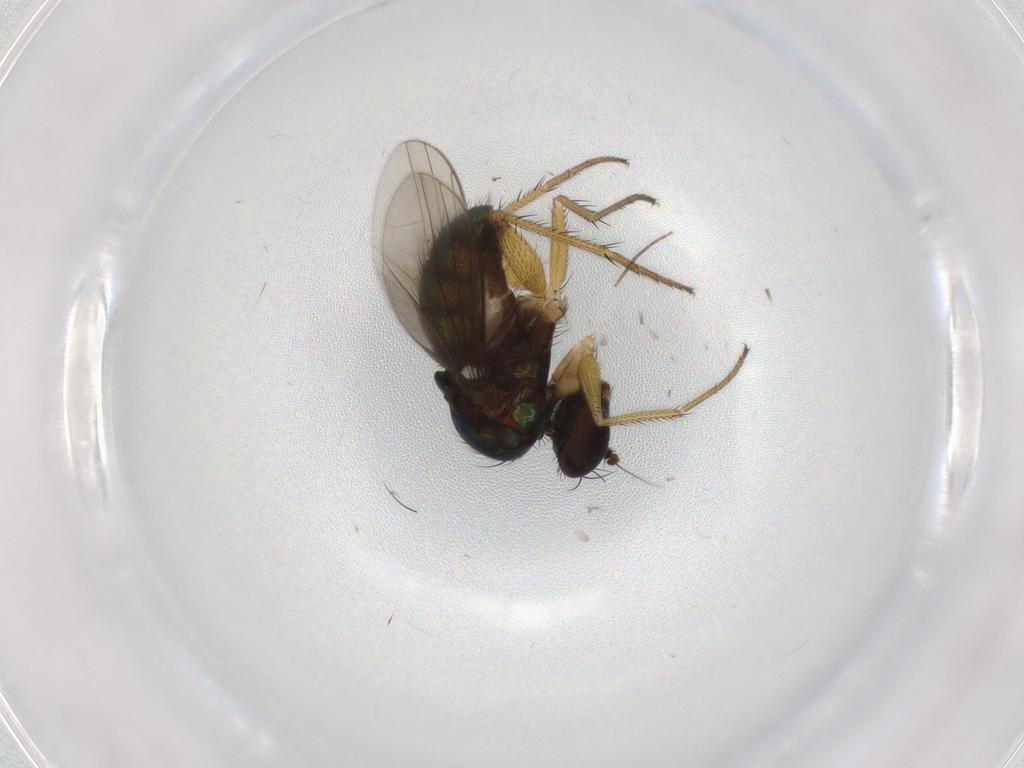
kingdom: Animalia
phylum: Arthropoda
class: Insecta
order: Diptera
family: Dolichopodidae
